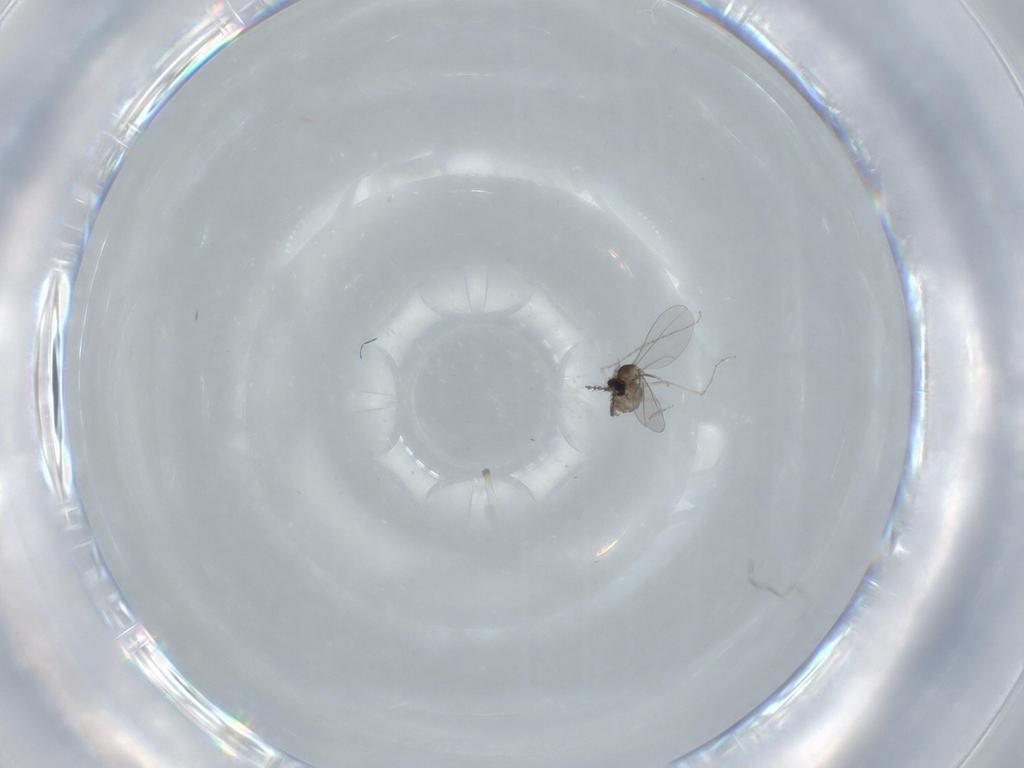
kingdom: Animalia
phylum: Arthropoda
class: Insecta
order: Diptera
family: Cecidomyiidae
